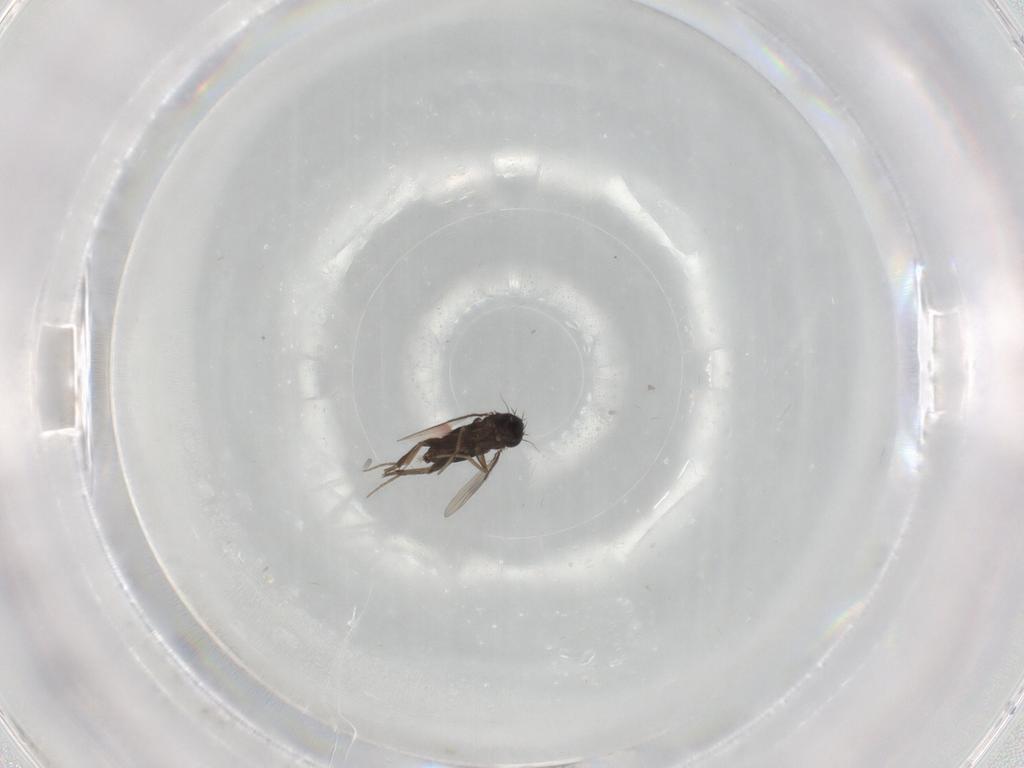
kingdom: Animalia
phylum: Arthropoda
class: Insecta
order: Diptera
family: Phoridae
